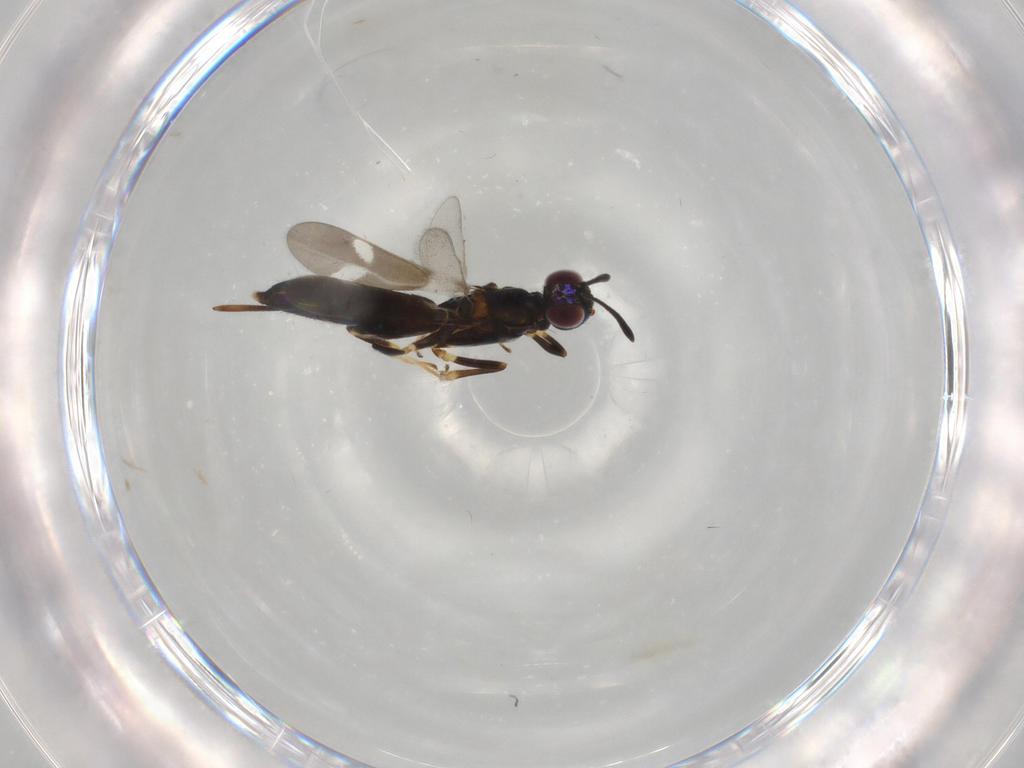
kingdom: Animalia
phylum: Arthropoda
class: Insecta
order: Hymenoptera
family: Eupelmidae
